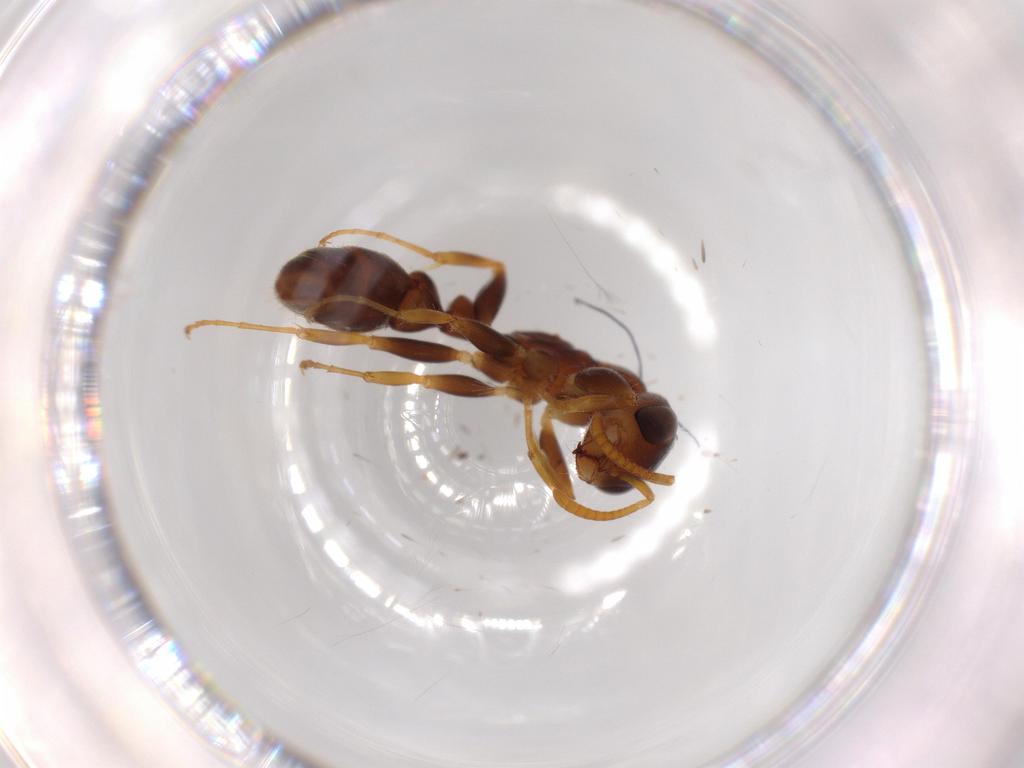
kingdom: Animalia
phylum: Arthropoda
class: Insecta
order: Hymenoptera
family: Formicidae
